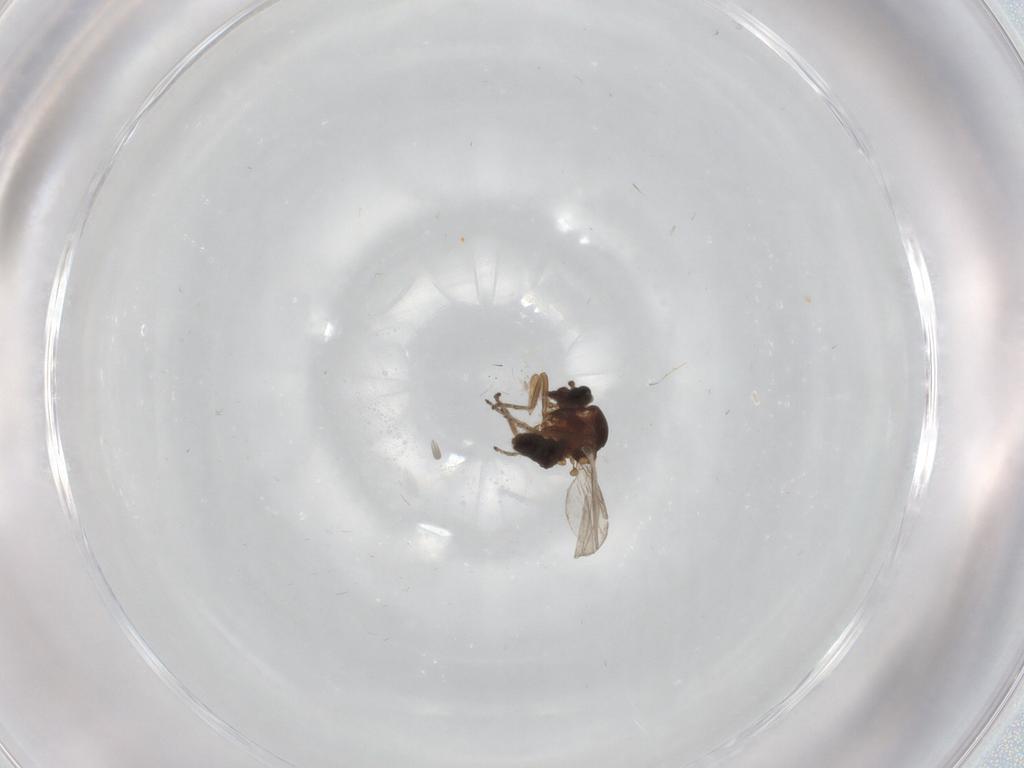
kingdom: Animalia
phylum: Arthropoda
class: Insecta
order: Diptera
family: Ceratopogonidae
